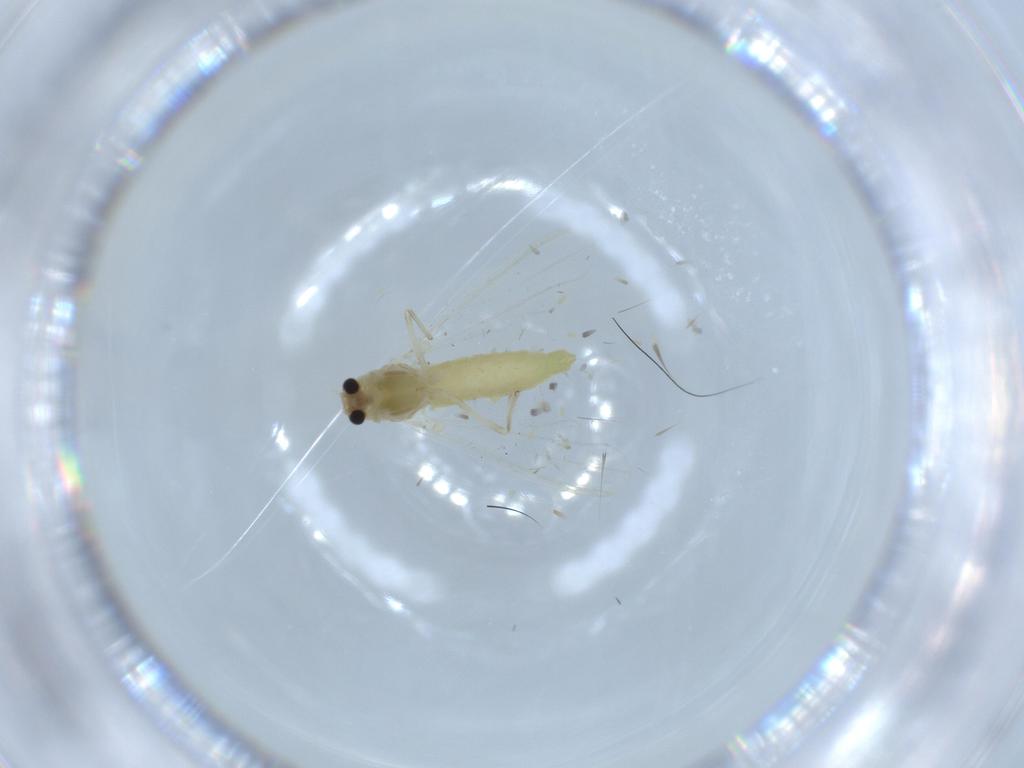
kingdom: Animalia
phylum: Arthropoda
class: Insecta
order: Diptera
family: Chironomidae
